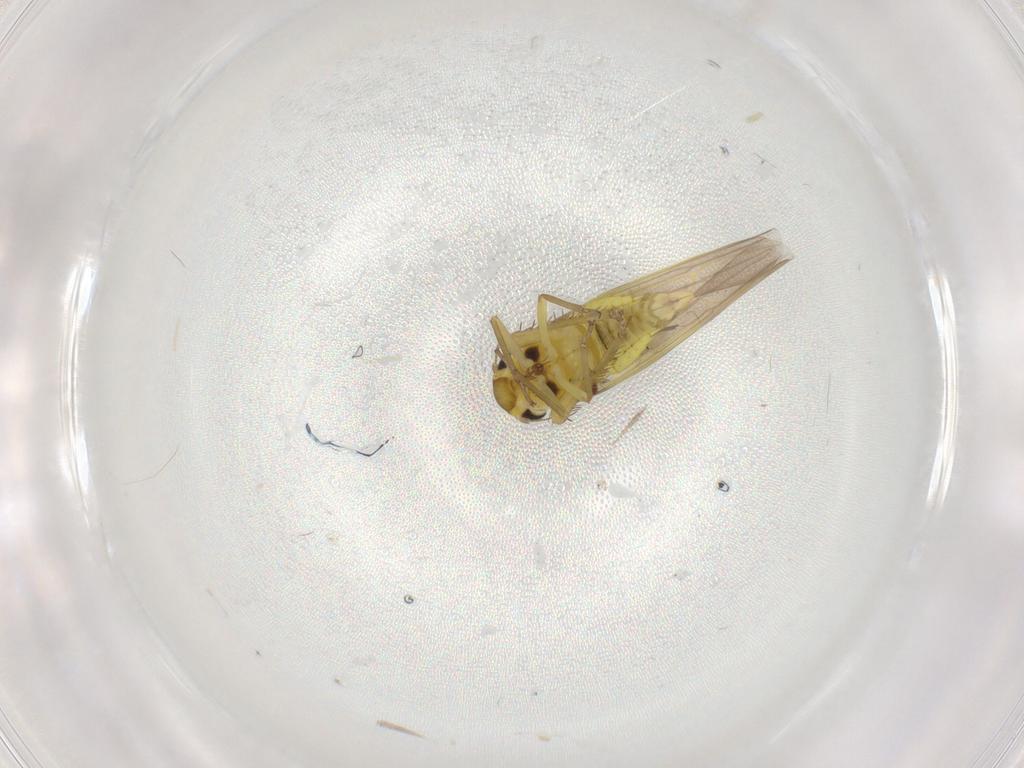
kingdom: Animalia
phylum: Arthropoda
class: Insecta
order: Hemiptera
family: Cicadellidae
